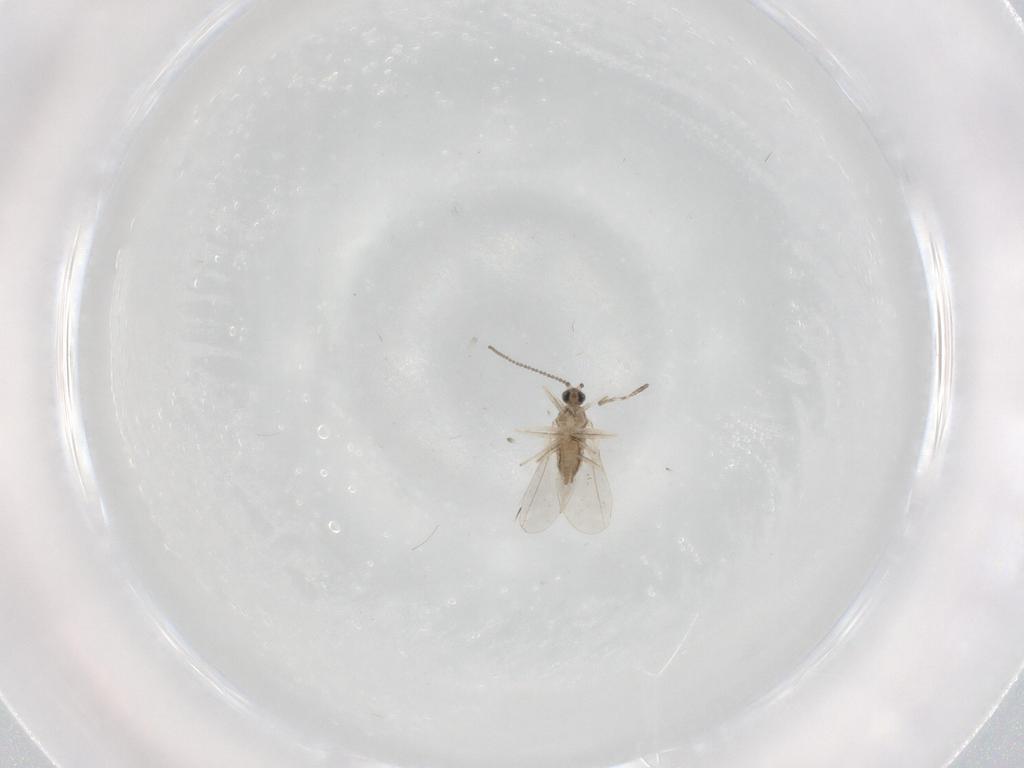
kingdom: Animalia
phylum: Arthropoda
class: Insecta
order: Diptera
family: Cecidomyiidae
